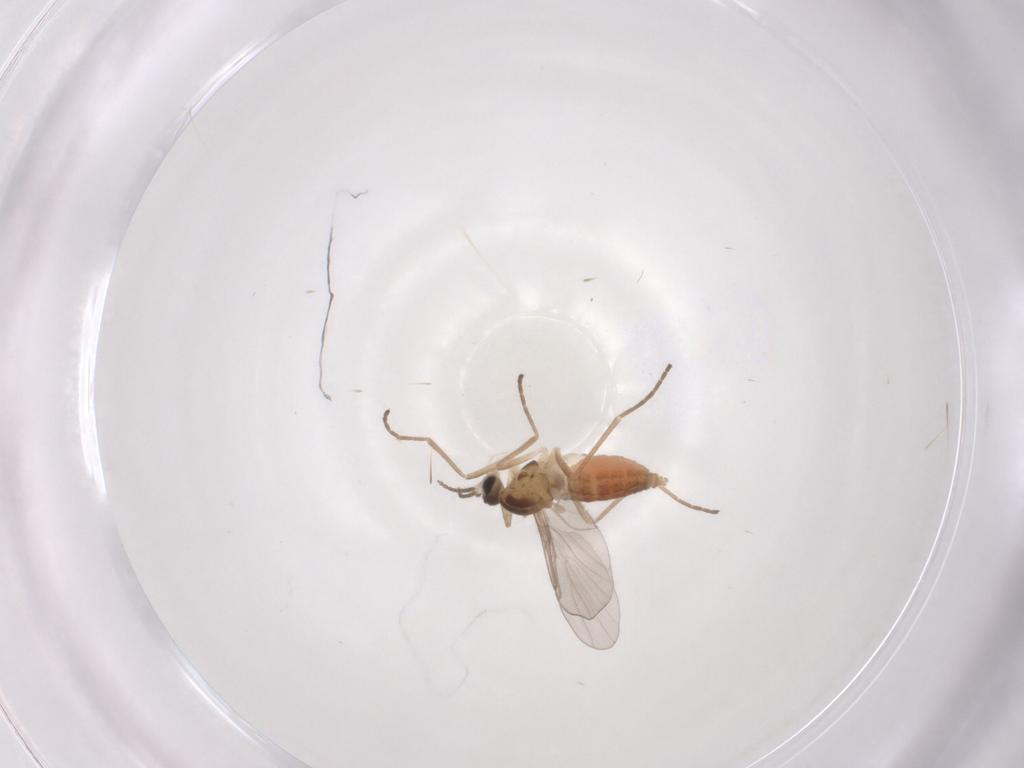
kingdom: Animalia
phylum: Arthropoda
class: Insecta
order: Diptera
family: Cecidomyiidae
